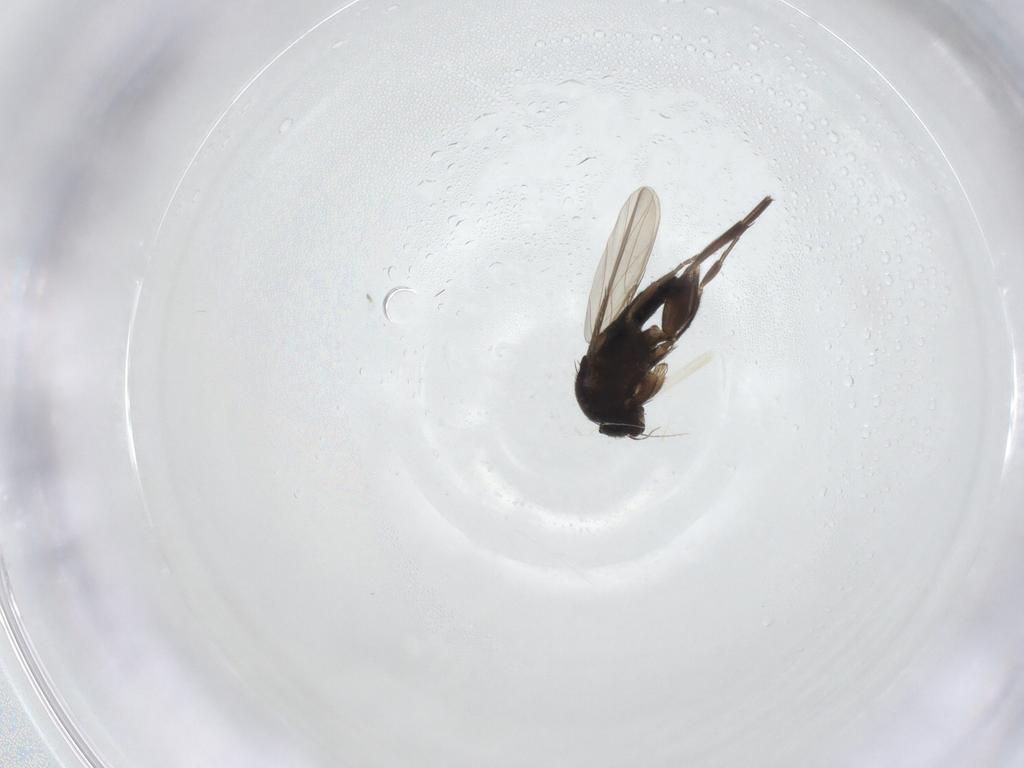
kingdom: Animalia
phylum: Arthropoda
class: Insecta
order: Diptera
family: Phoridae
